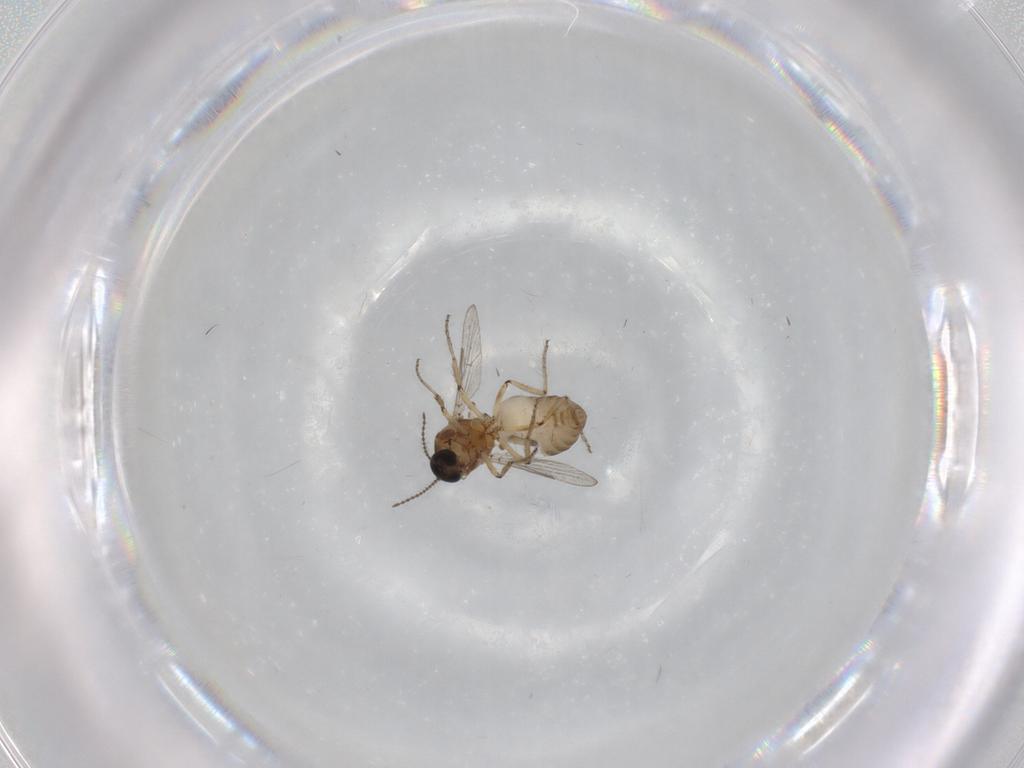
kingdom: Animalia
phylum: Arthropoda
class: Insecta
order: Diptera
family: Ceratopogonidae
